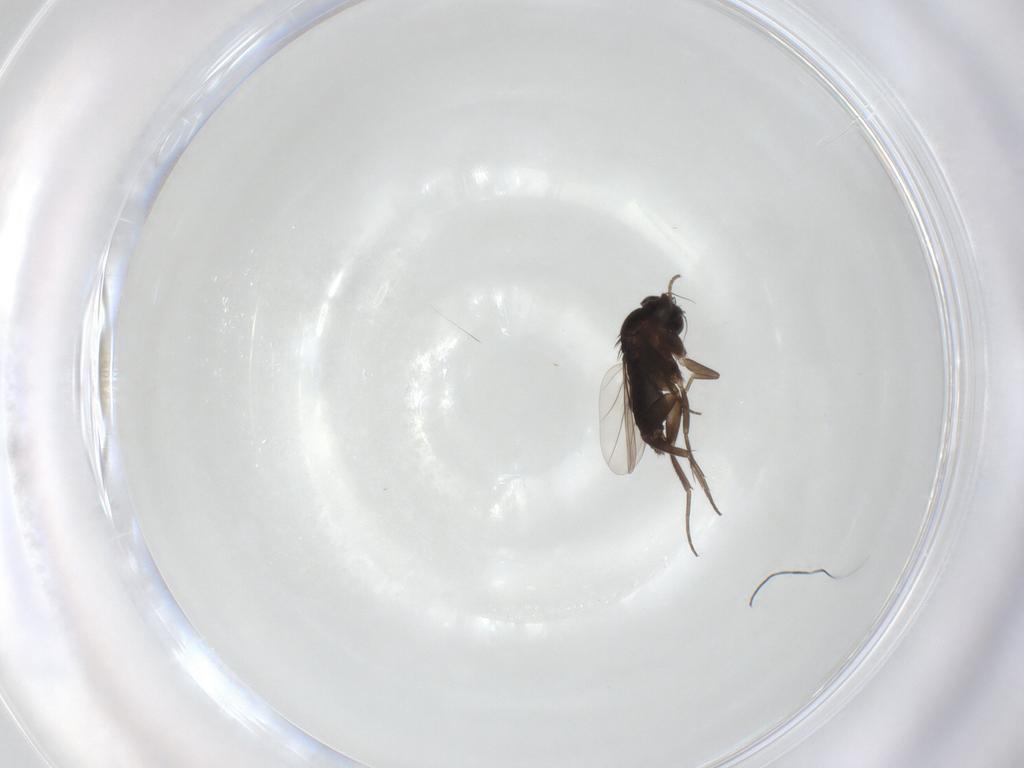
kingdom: Animalia
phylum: Arthropoda
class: Insecta
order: Diptera
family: Phoridae
